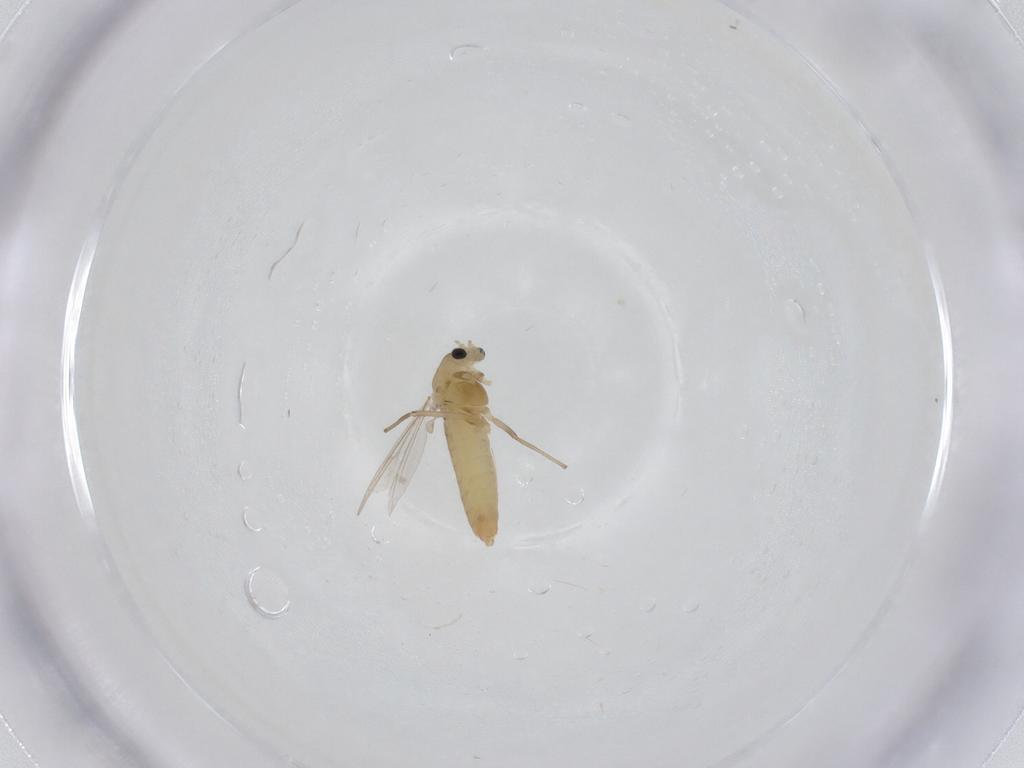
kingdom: Animalia
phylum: Arthropoda
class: Insecta
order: Diptera
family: Chironomidae
